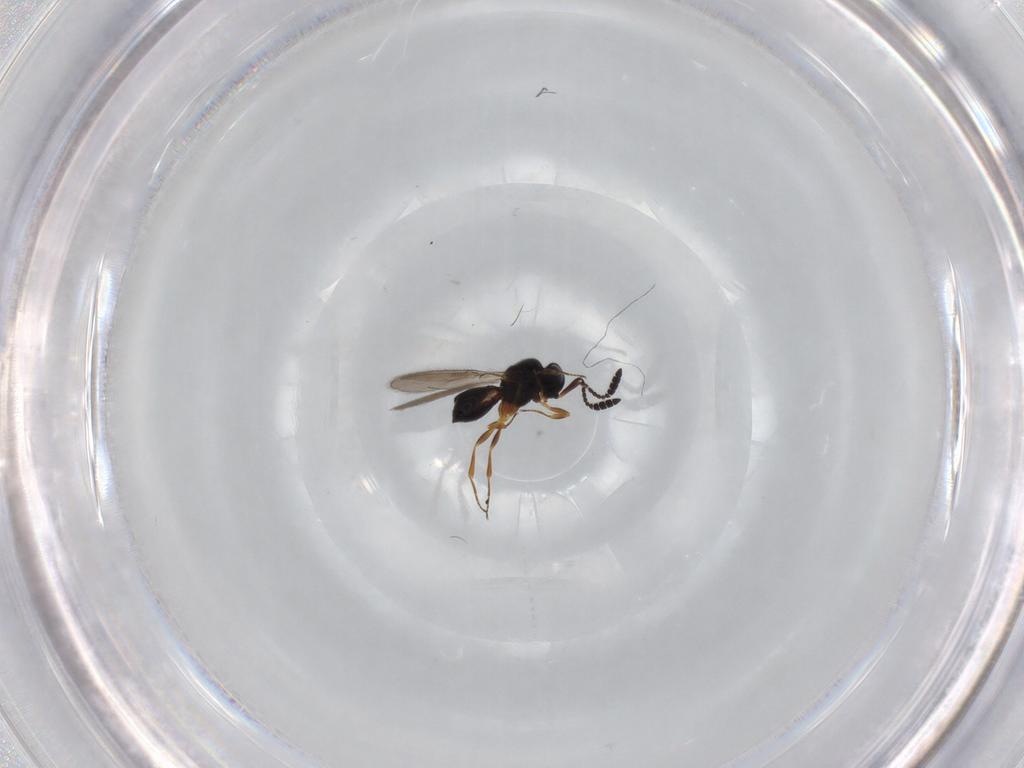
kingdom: Animalia
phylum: Arthropoda
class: Insecta
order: Hymenoptera
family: Scelionidae
